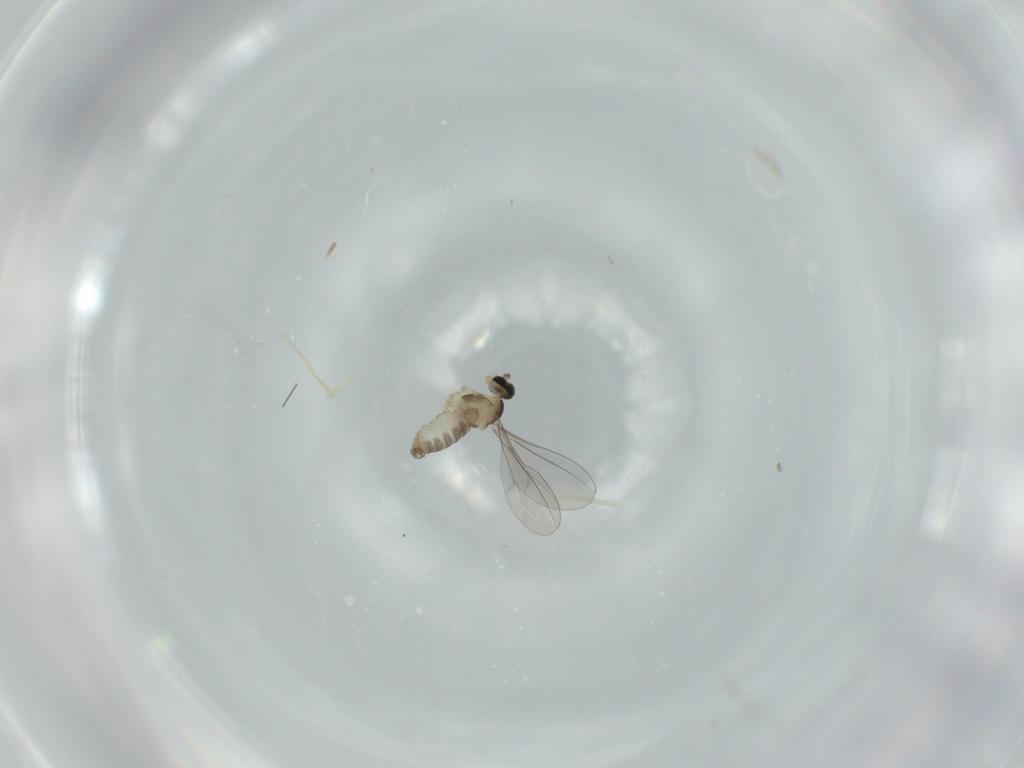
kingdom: Animalia
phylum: Arthropoda
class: Insecta
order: Diptera
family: Cecidomyiidae
